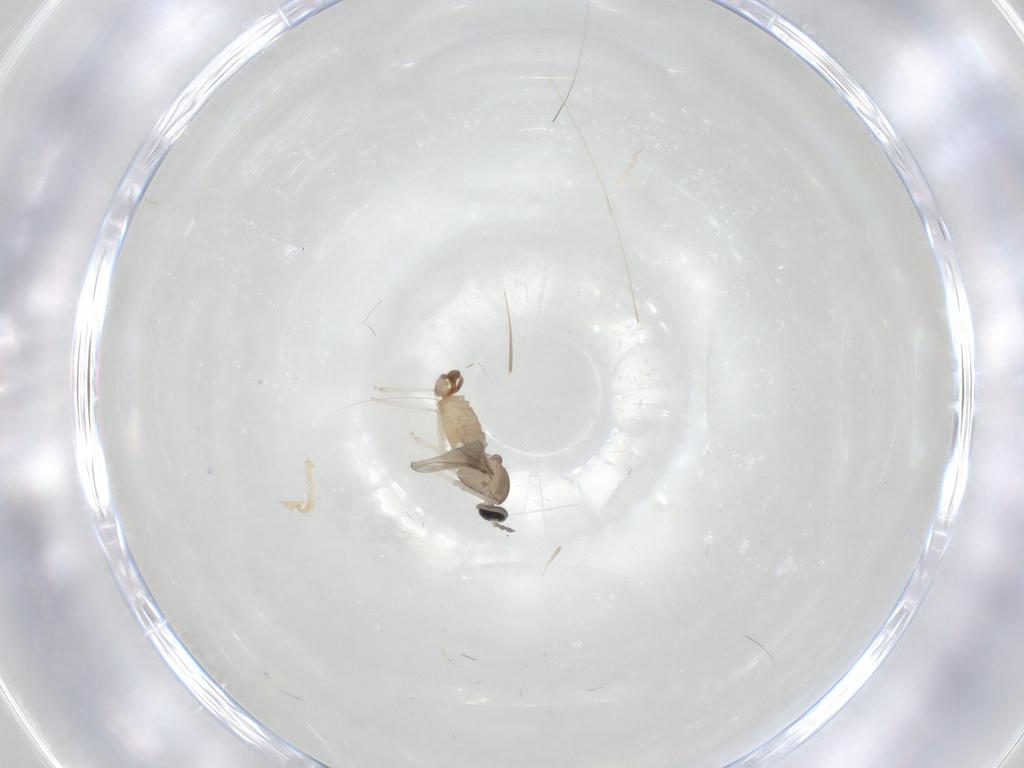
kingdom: Animalia
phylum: Arthropoda
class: Insecta
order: Diptera
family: Cecidomyiidae
